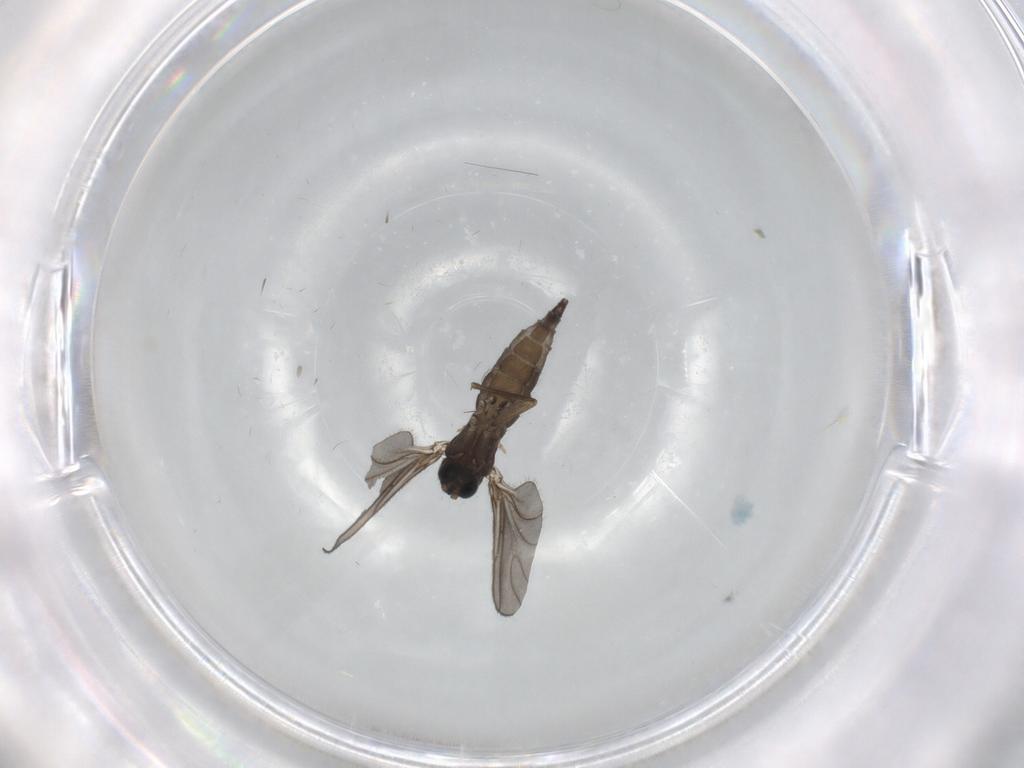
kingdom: Animalia
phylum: Arthropoda
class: Insecta
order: Diptera
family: Sciaridae
